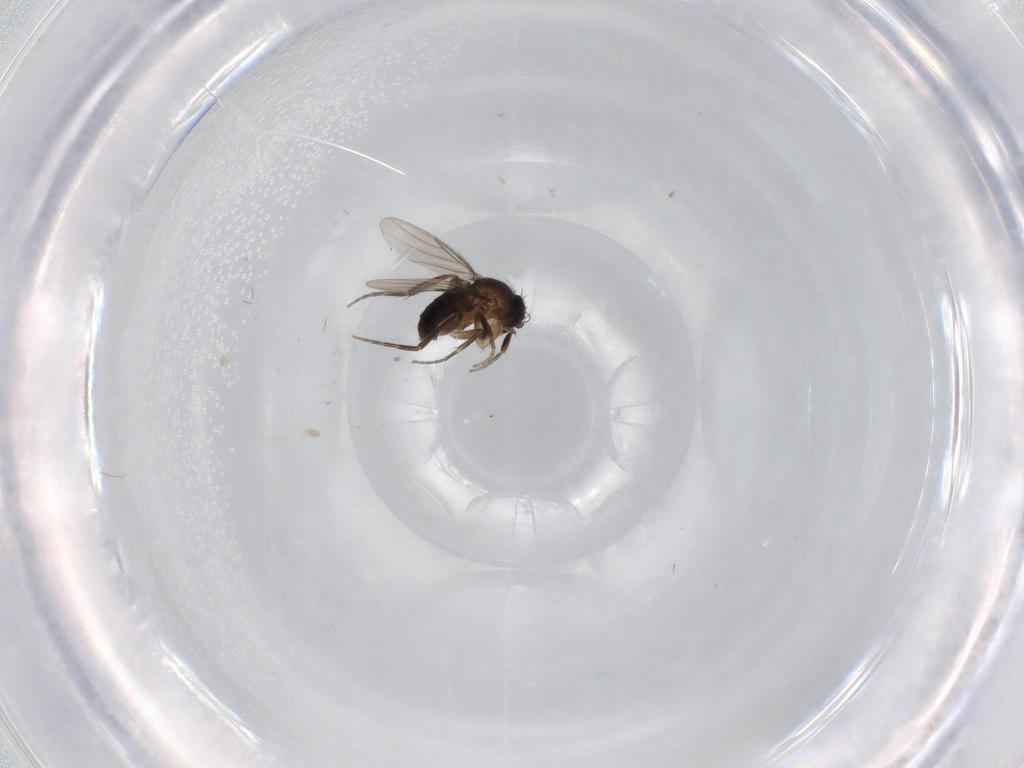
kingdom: Animalia
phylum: Arthropoda
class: Insecta
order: Diptera
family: Phoridae
